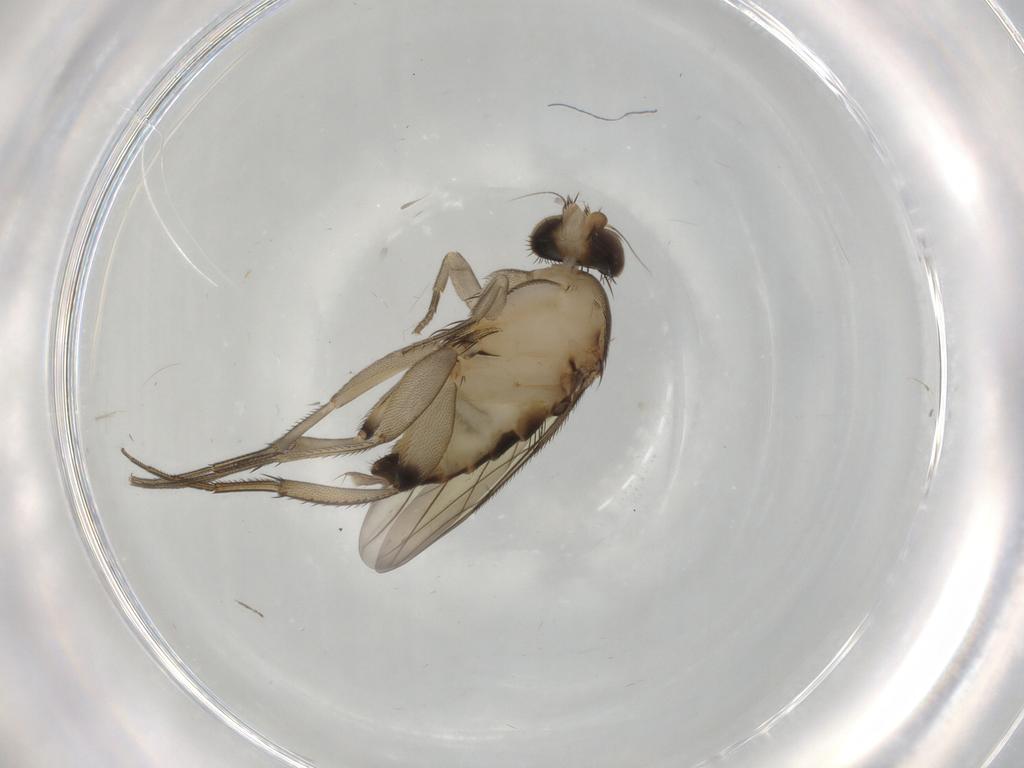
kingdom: Animalia
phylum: Arthropoda
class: Insecta
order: Diptera
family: Phoridae
